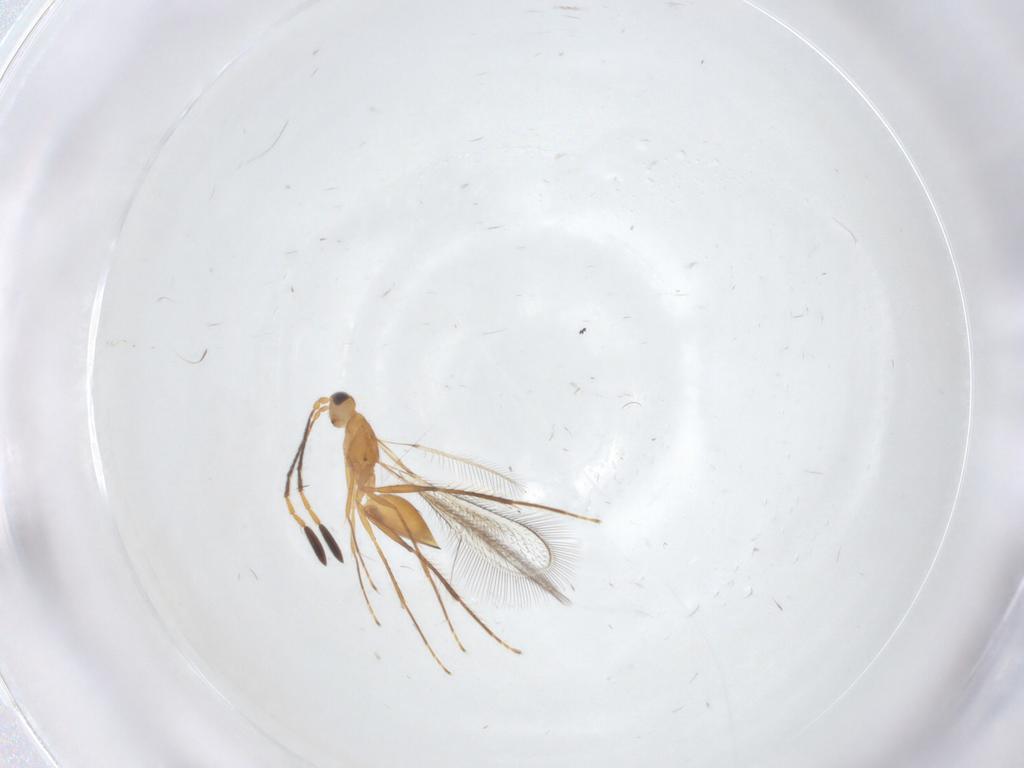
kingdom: Animalia
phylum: Arthropoda
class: Insecta
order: Hymenoptera
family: Mymaridae
